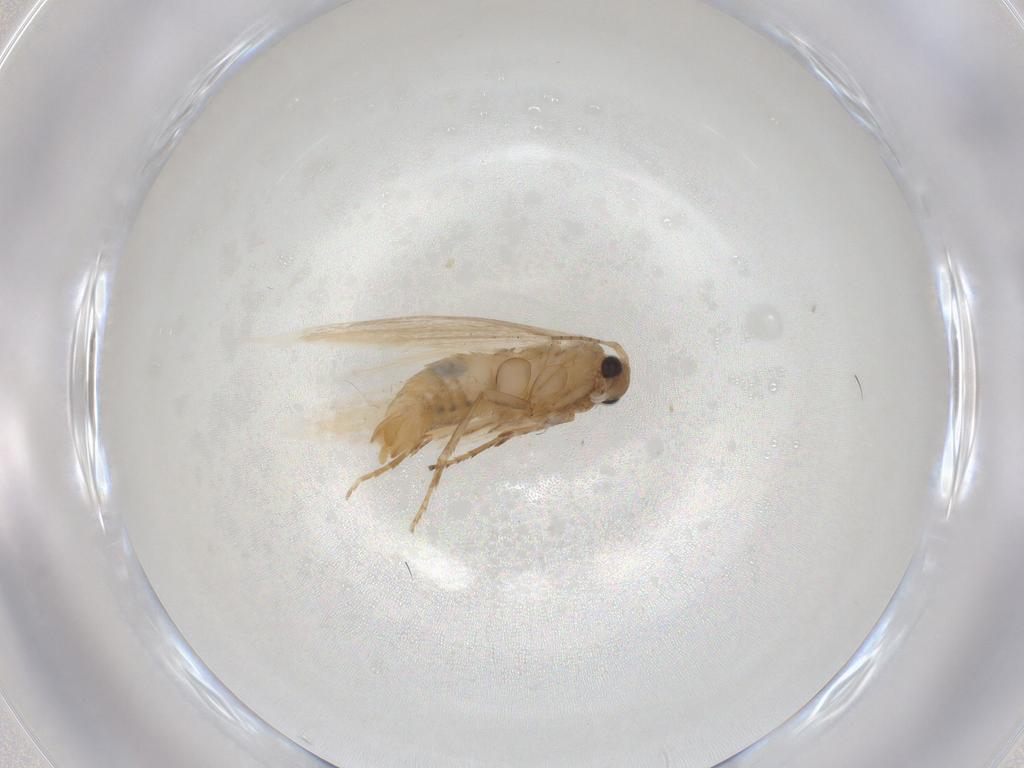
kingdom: Animalia
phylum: Arthropoda
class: Insecta
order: Lepidoptera
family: Bucculatricidae
